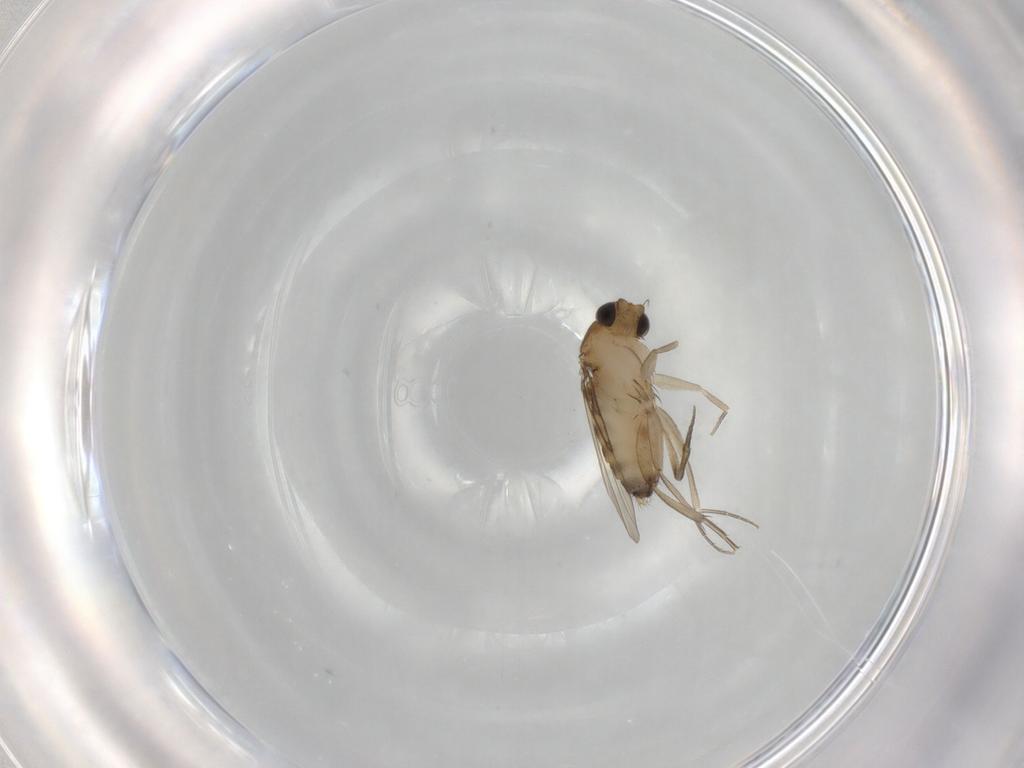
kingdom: Animalia
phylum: Arthropoda
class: Insecta
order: Diptera
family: Phoridae
